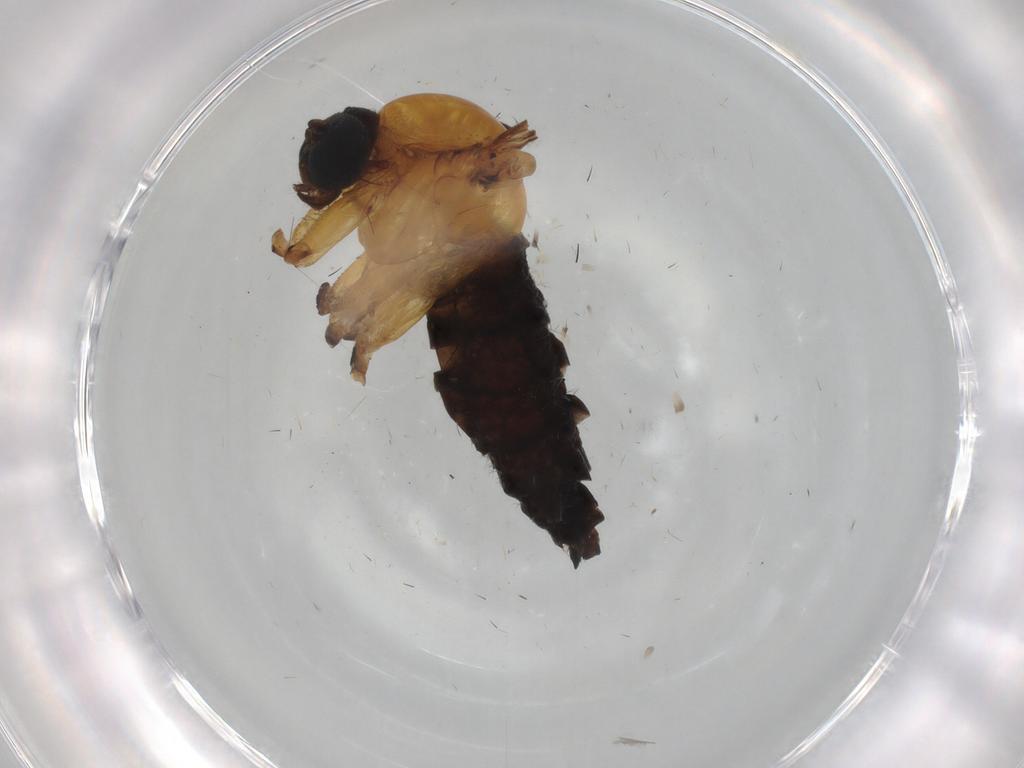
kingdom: Animalia
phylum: Arthropoda
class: Insecta
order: Diptera
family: Sciaridae
